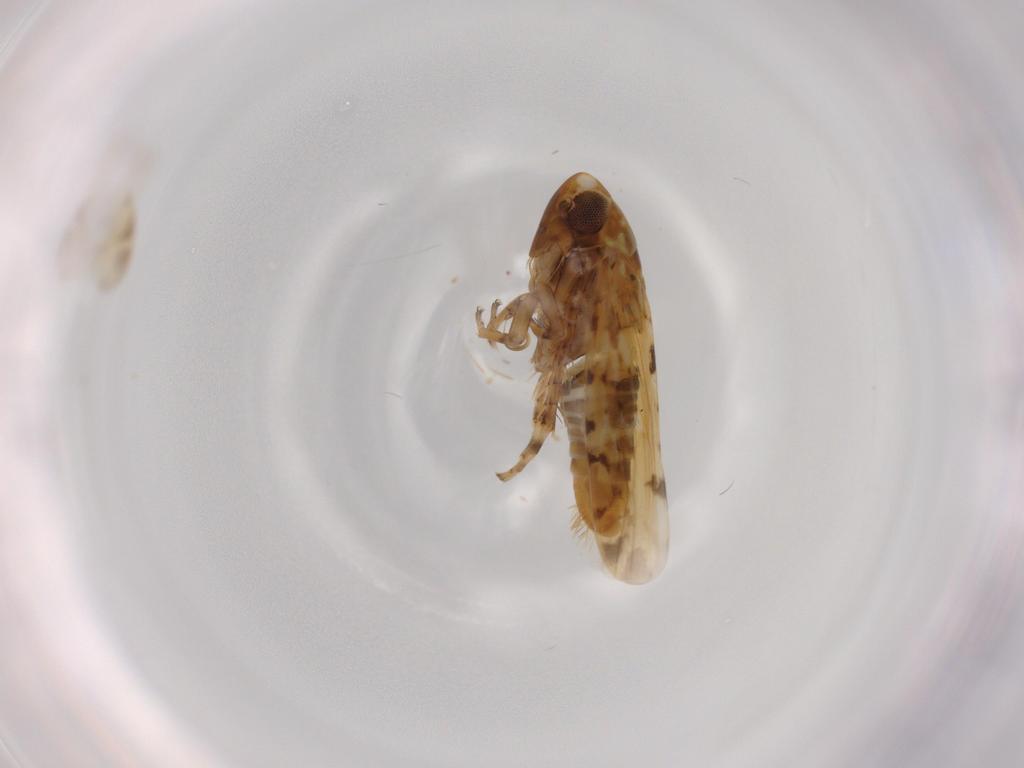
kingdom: Animalia
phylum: Arthropoda
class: Insecta
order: Hemiptera
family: Cicadellidae
